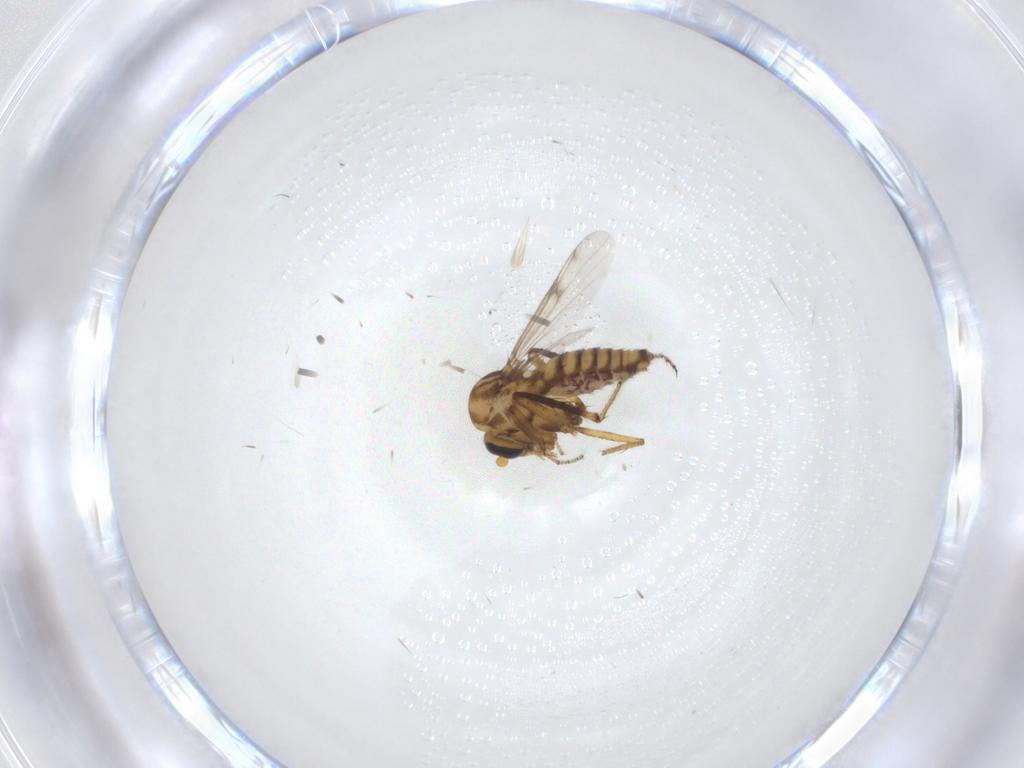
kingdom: Animalia
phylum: Arthropoda
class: Insecta
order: Diptera
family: Ceratopogonidae
